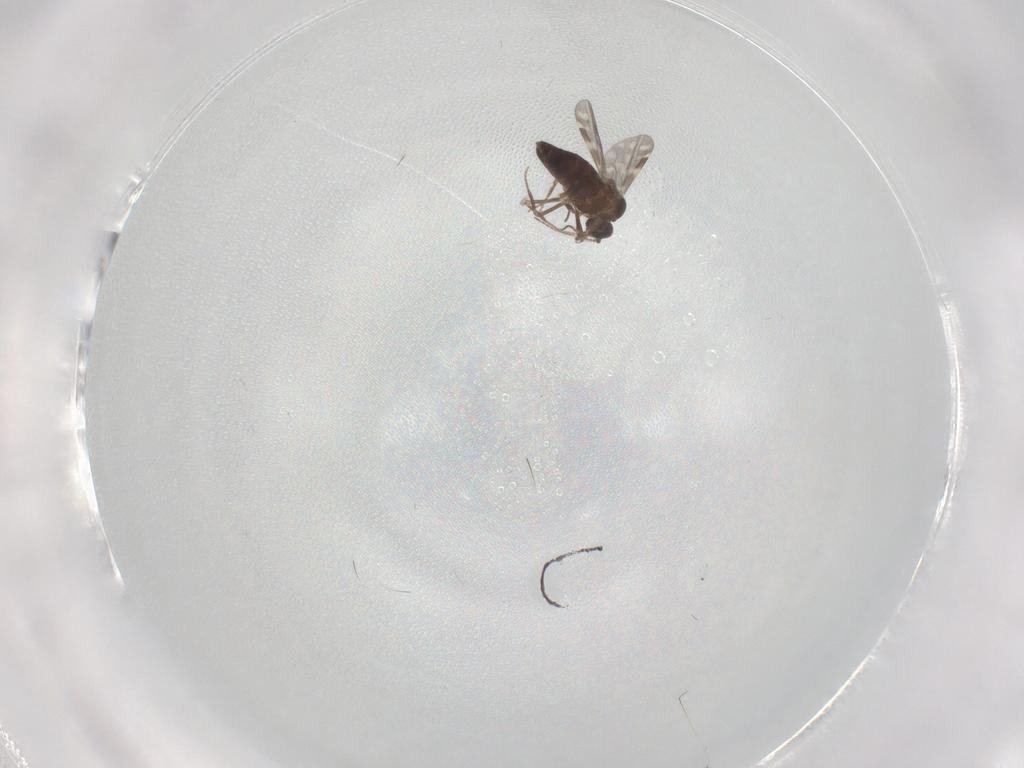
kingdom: Animalia
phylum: Arthropoda
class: Insecta
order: Diptera
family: Ceratopogonidae
